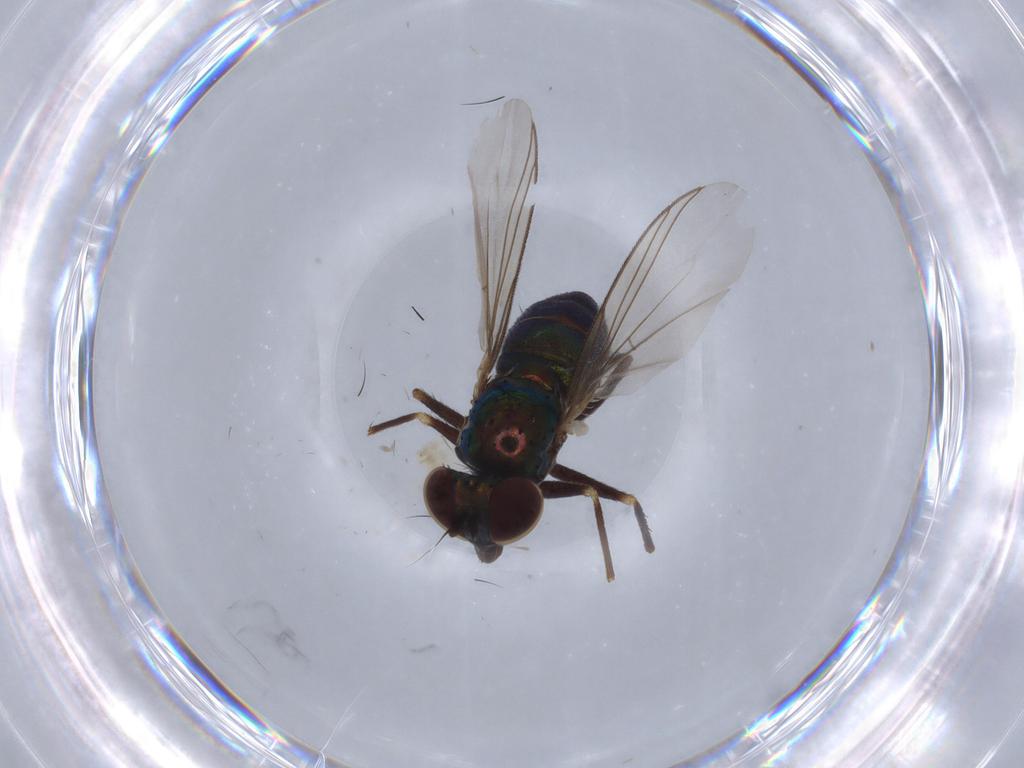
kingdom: Animalia
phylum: Arthropoda
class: Insecta
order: Diptera
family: Dolichopodidae
